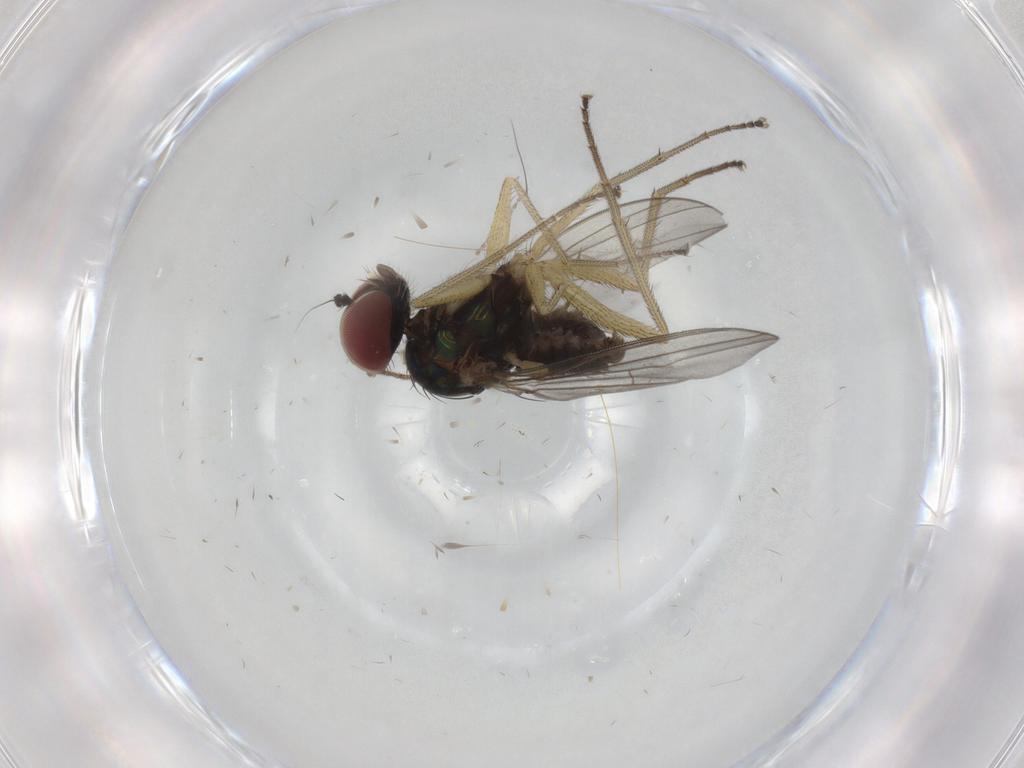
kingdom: Animalia
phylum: Arthropoda
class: Insecta
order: Diptera
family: Dolichopodidae
